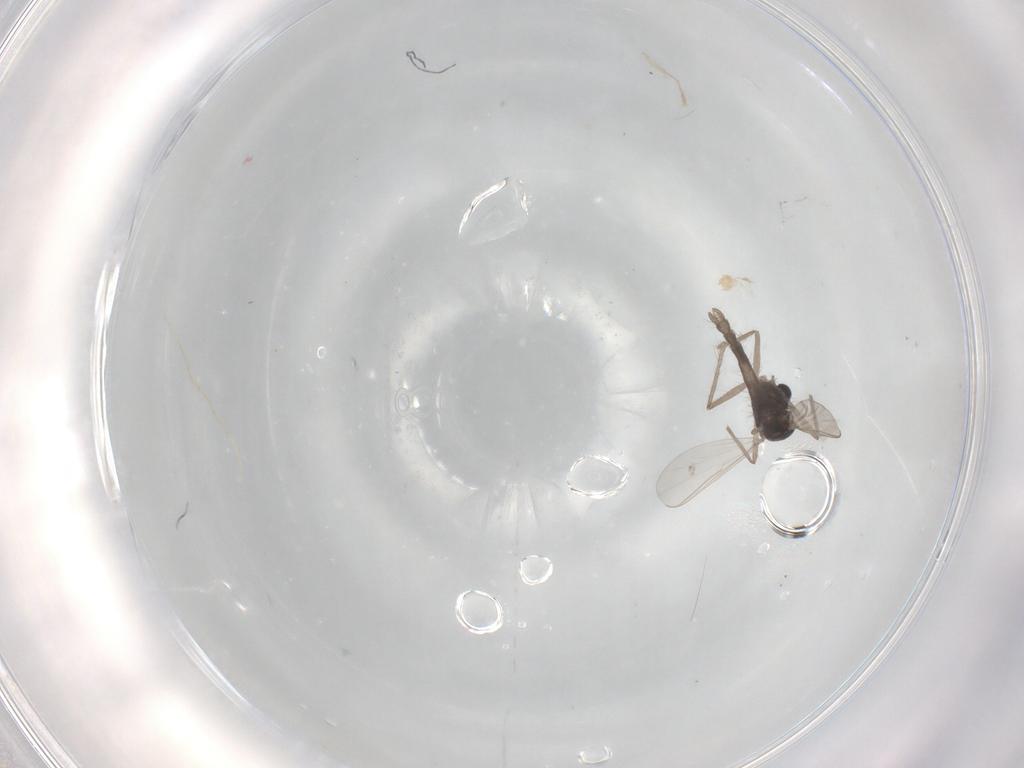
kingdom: Animalia
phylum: Arthropoda
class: Insecta
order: Diptera
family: Chironomidae
